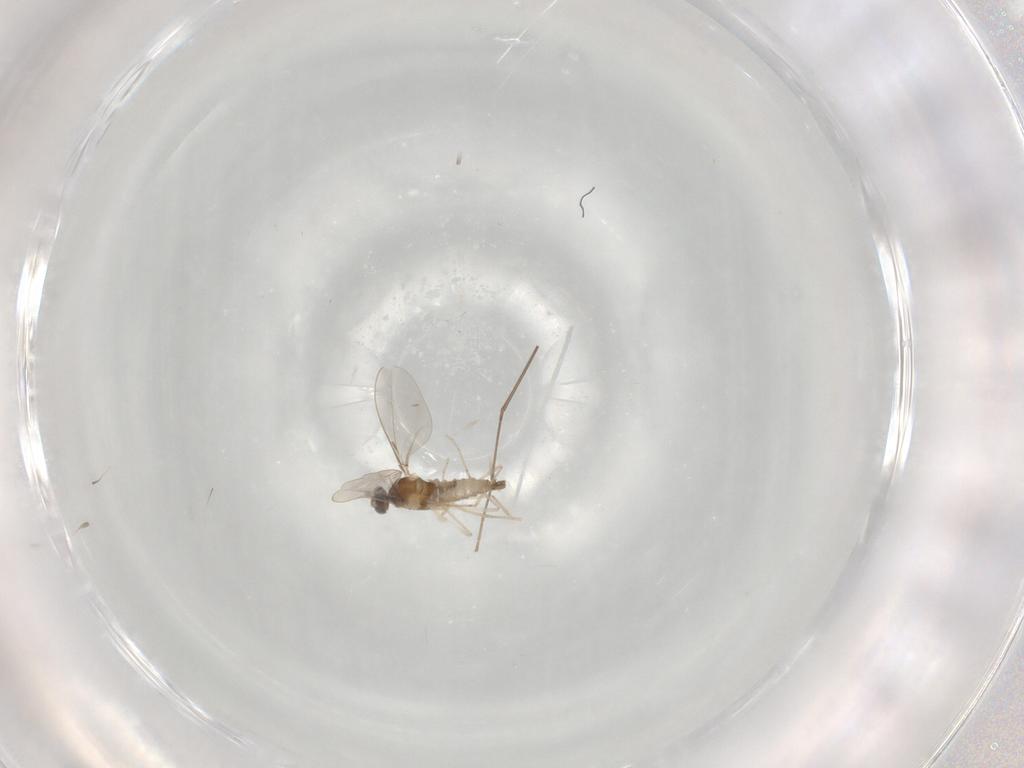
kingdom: Animalia
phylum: Arthropoda
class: Insecta
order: Diptera
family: Cecidomyiidae
